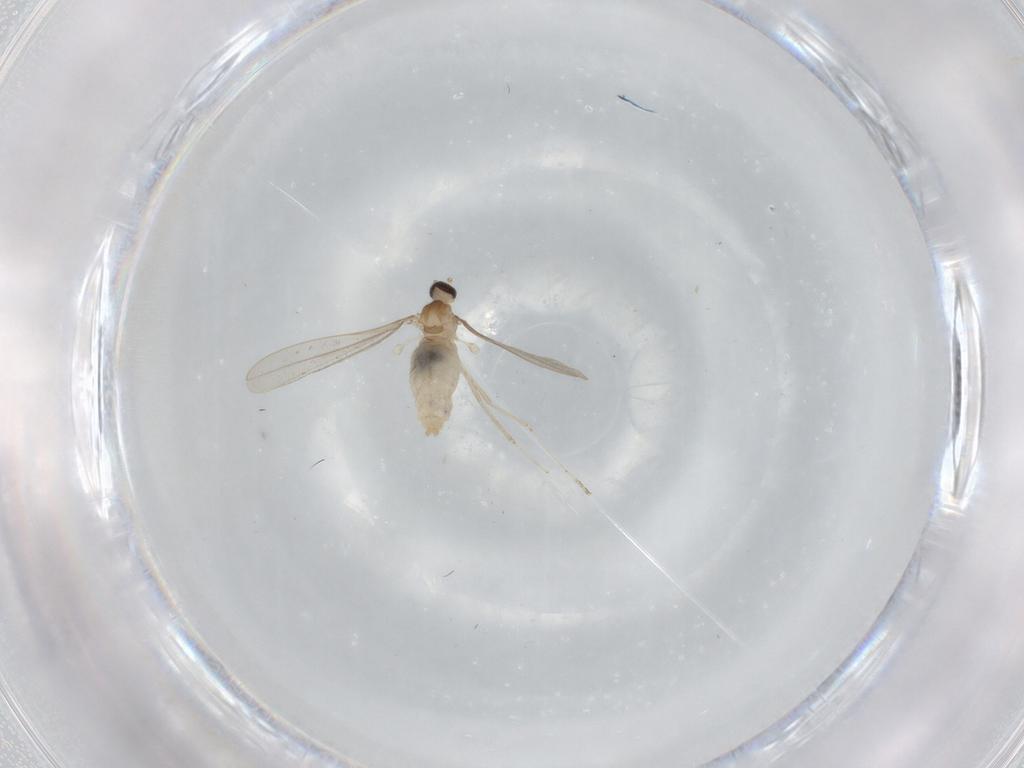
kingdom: Animalia
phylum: Arthropoda
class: Insecta
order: Diptera
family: Cecidomyiidae
